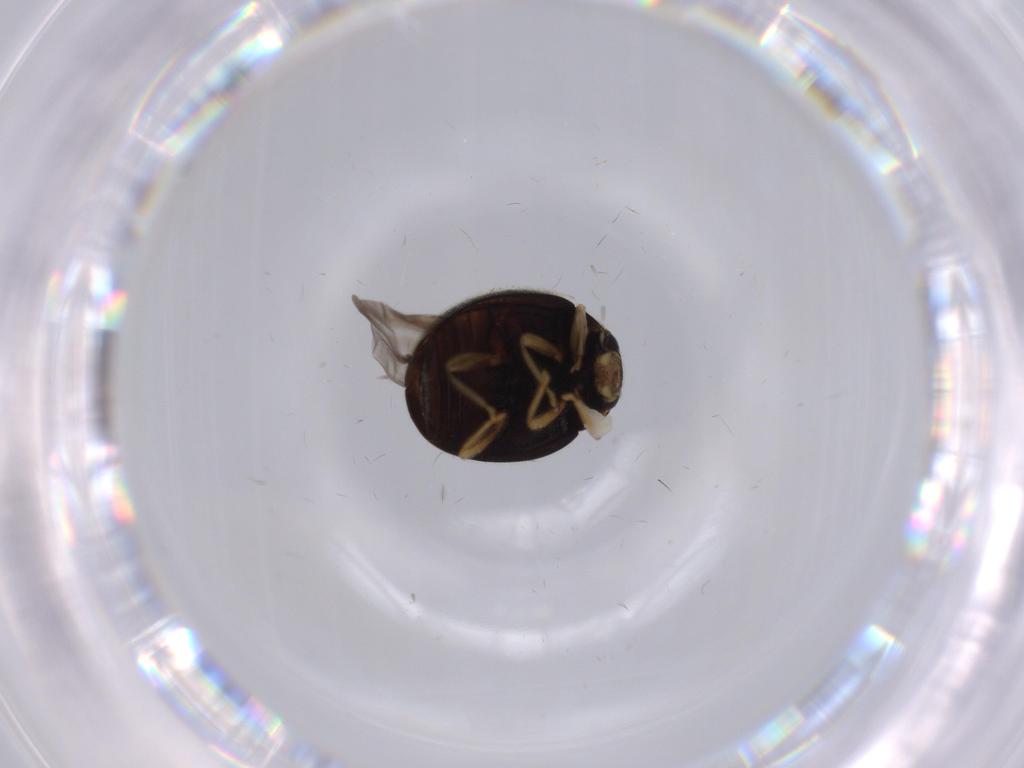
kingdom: Animalia
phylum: Arthropoda
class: Insecta
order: Coleoptera
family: Coccinellidae
